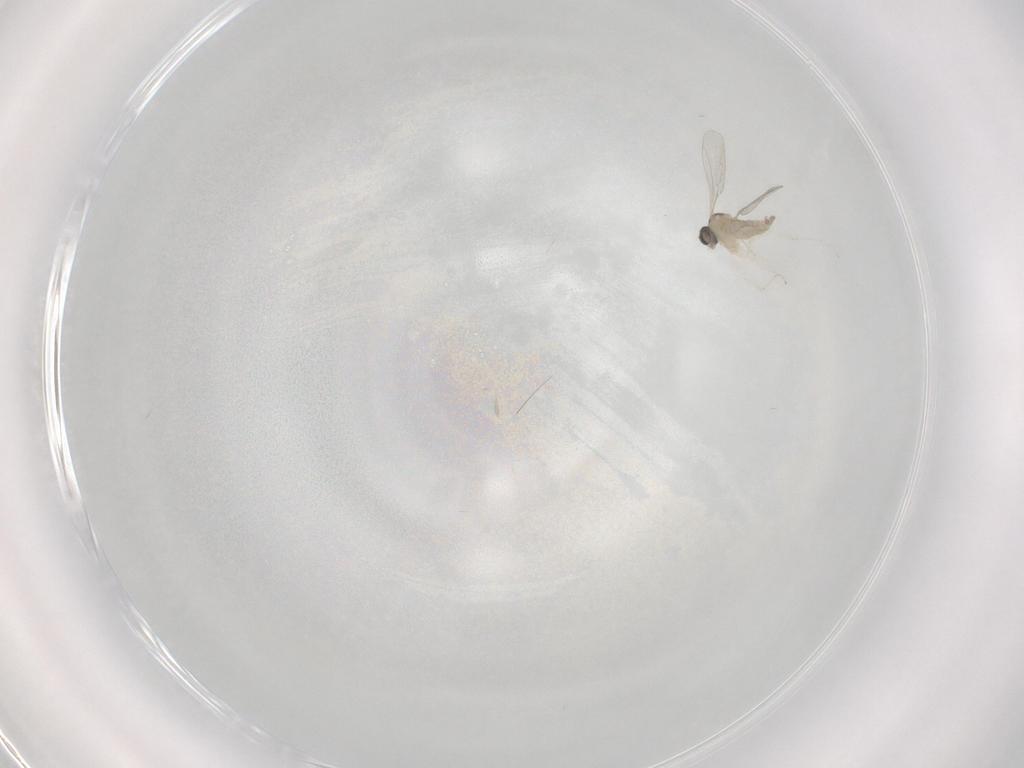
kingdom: Animalia
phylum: Arthropoda
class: Insecta
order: Diptera
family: Cecidomyiidae
